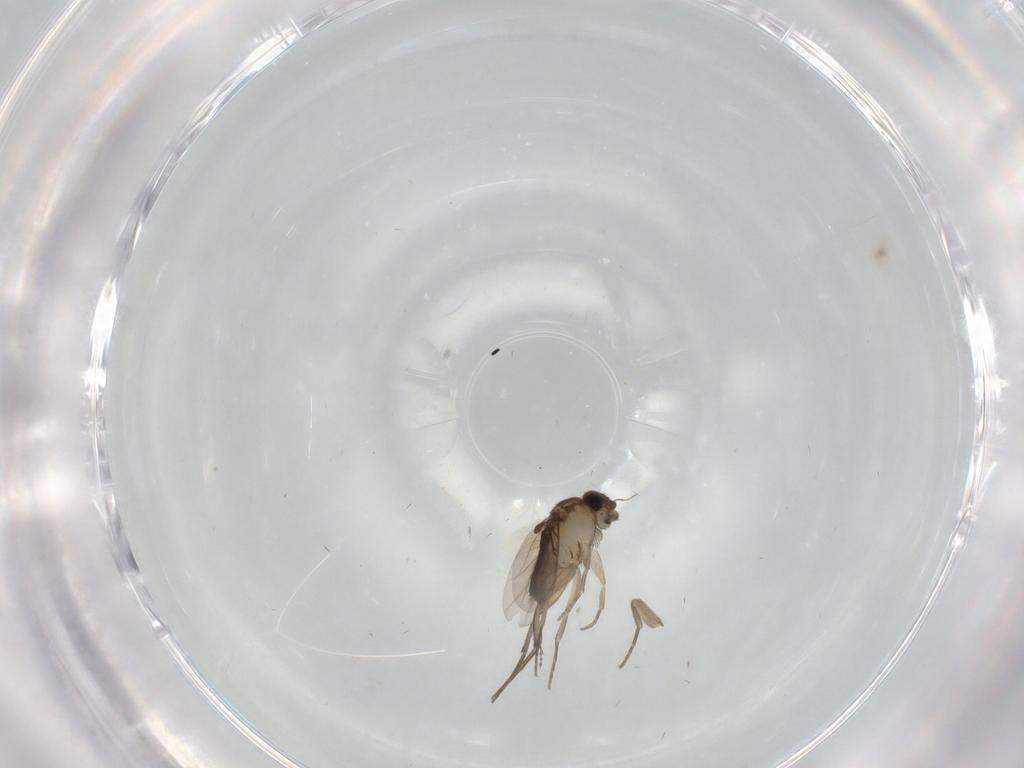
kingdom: Animalia
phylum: Arthropoda
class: Insecta
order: Diptera
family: Phoridae
